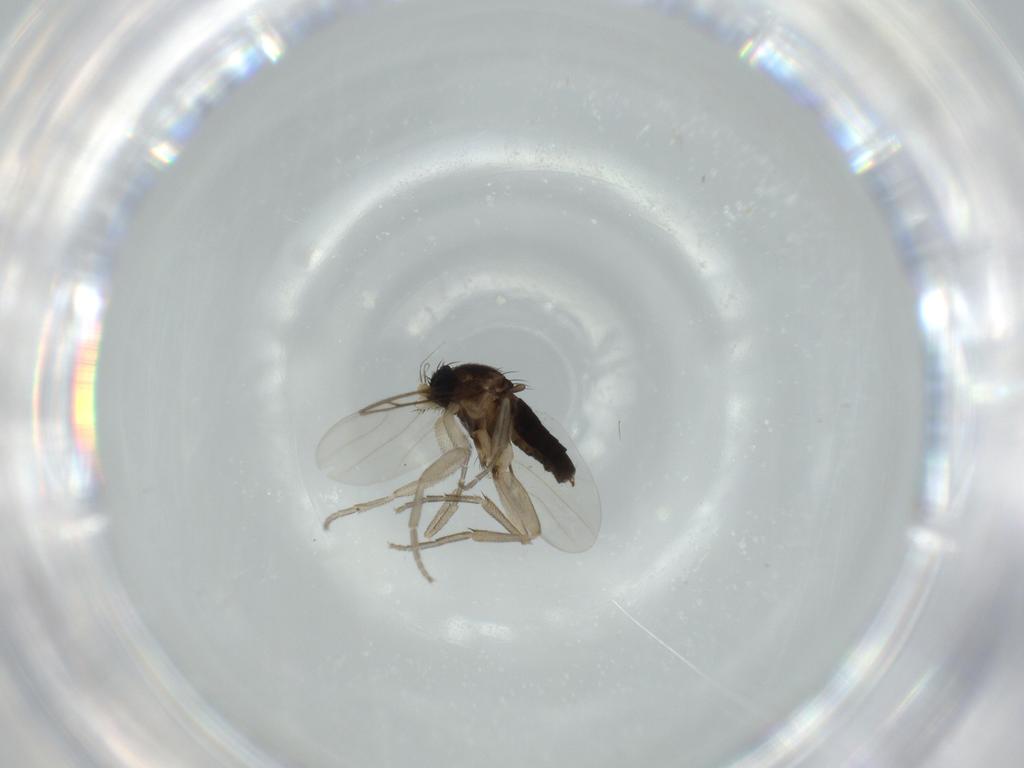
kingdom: Animalia
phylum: Arthropoda
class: Insecta
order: Diptera
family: Phoridae
